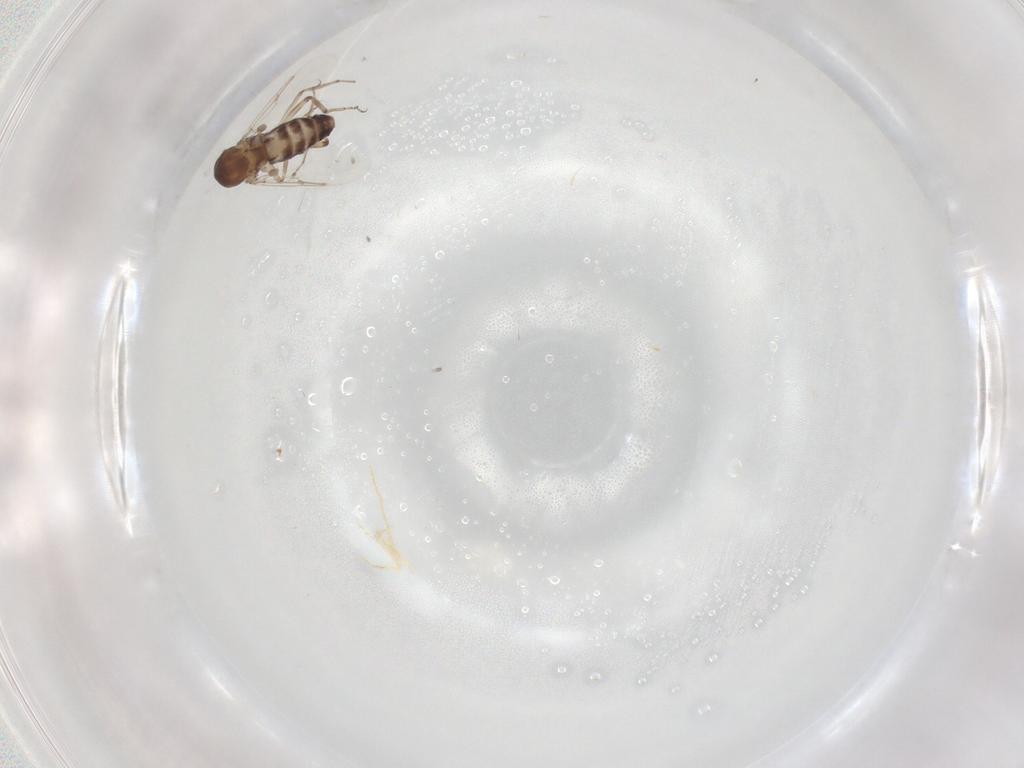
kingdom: Animalia
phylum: Arthropoda
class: Insecta
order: Diptera
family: Ceratopogonidae
